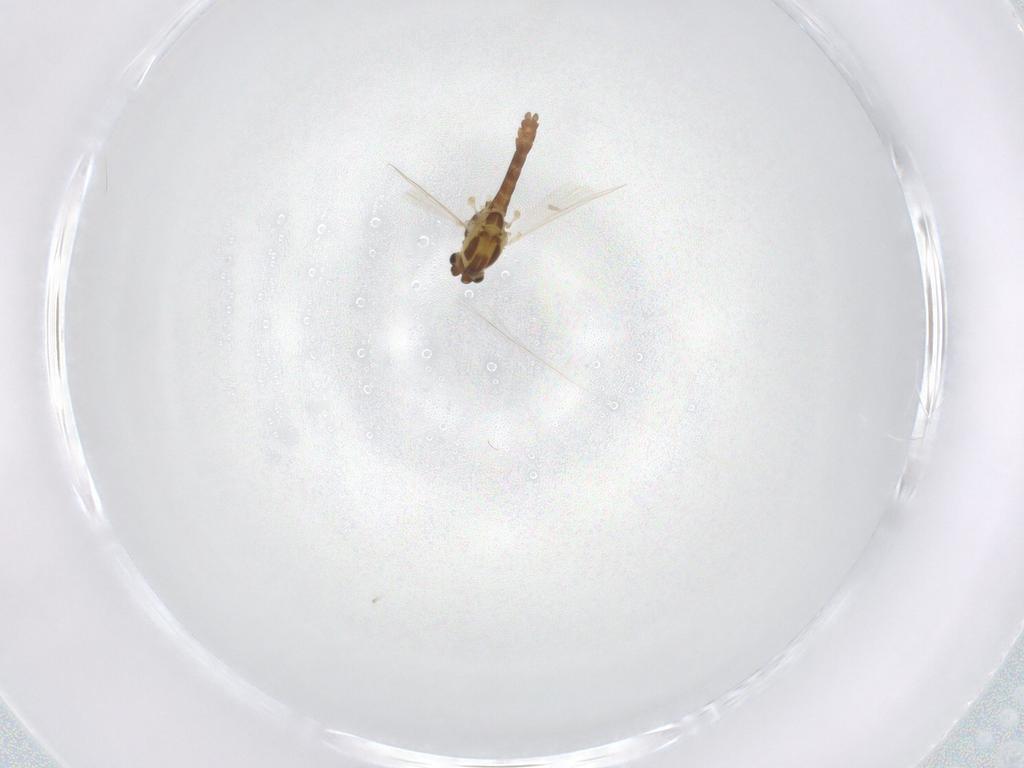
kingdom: Animalia
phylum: Arthropoda
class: Insecta
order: Diptera
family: Chironomidae
